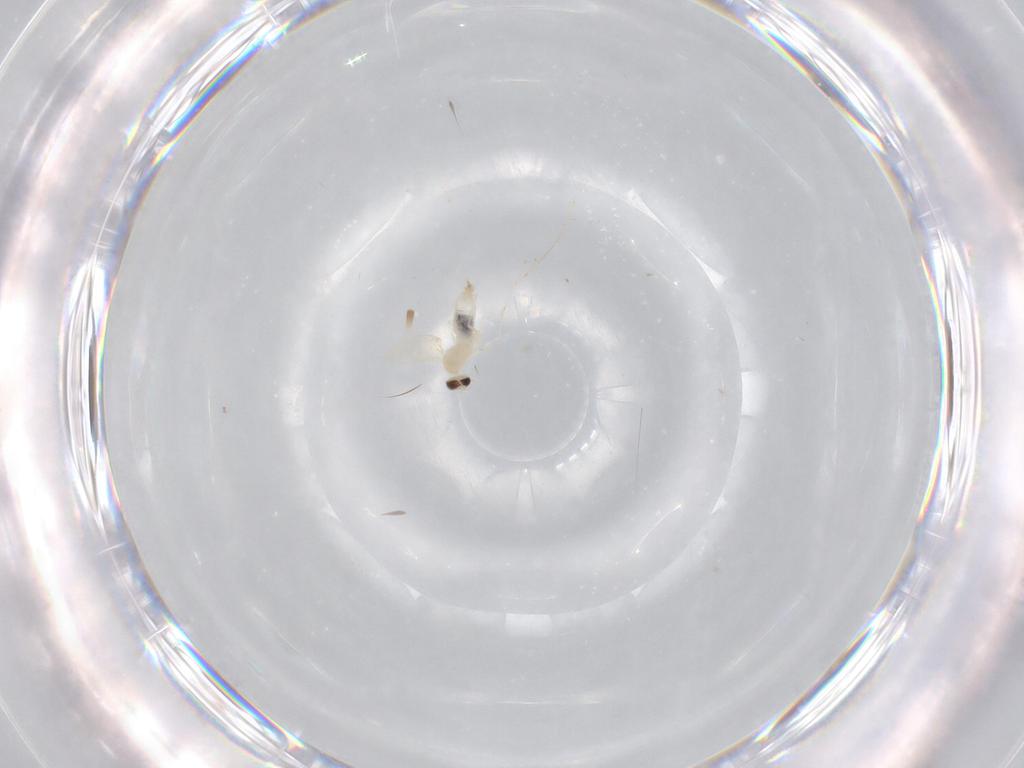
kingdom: Animalia
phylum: Arthropoda
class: Insecta
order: Diptera
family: Cecidomyiidae
